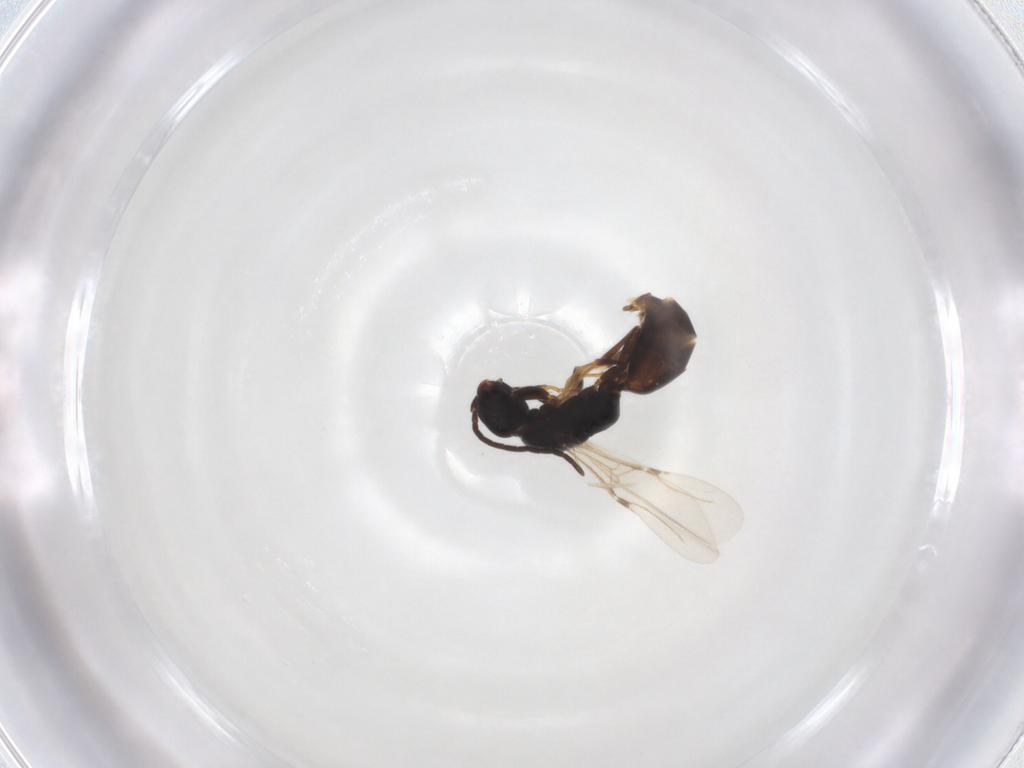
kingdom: Animalia
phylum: Arthropoda
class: Insecta
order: Hymenoptera
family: Bethylidae
